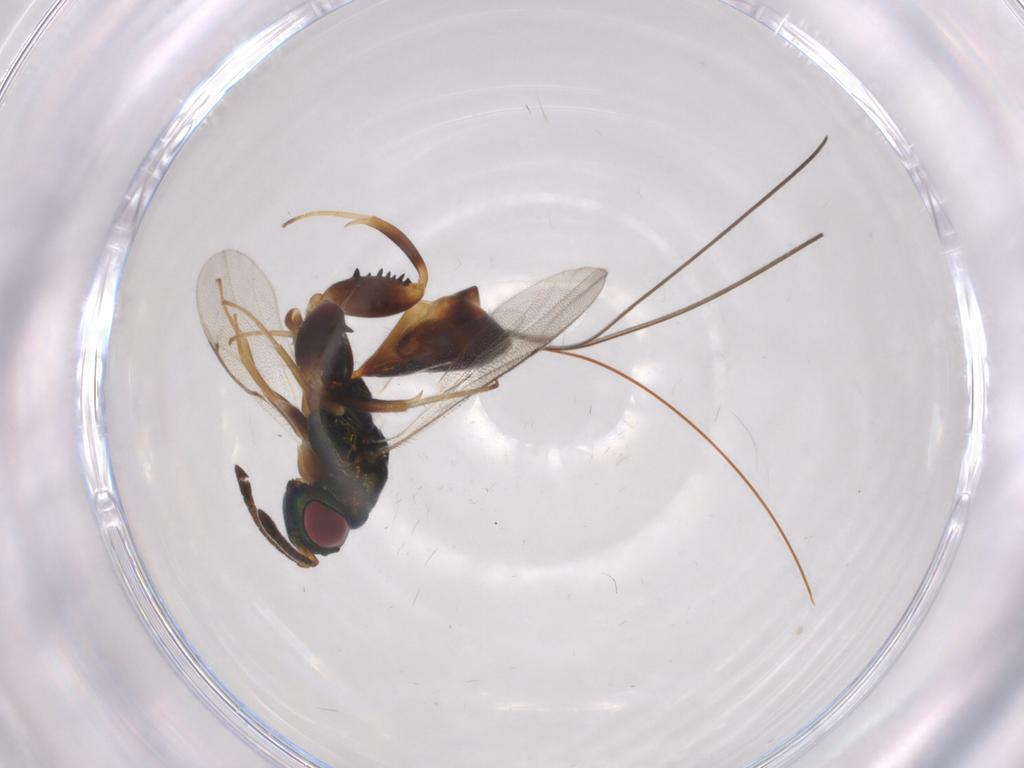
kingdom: Animalia
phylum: Arthropoda
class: Insecta
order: Hymenoptera
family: Torymidae
